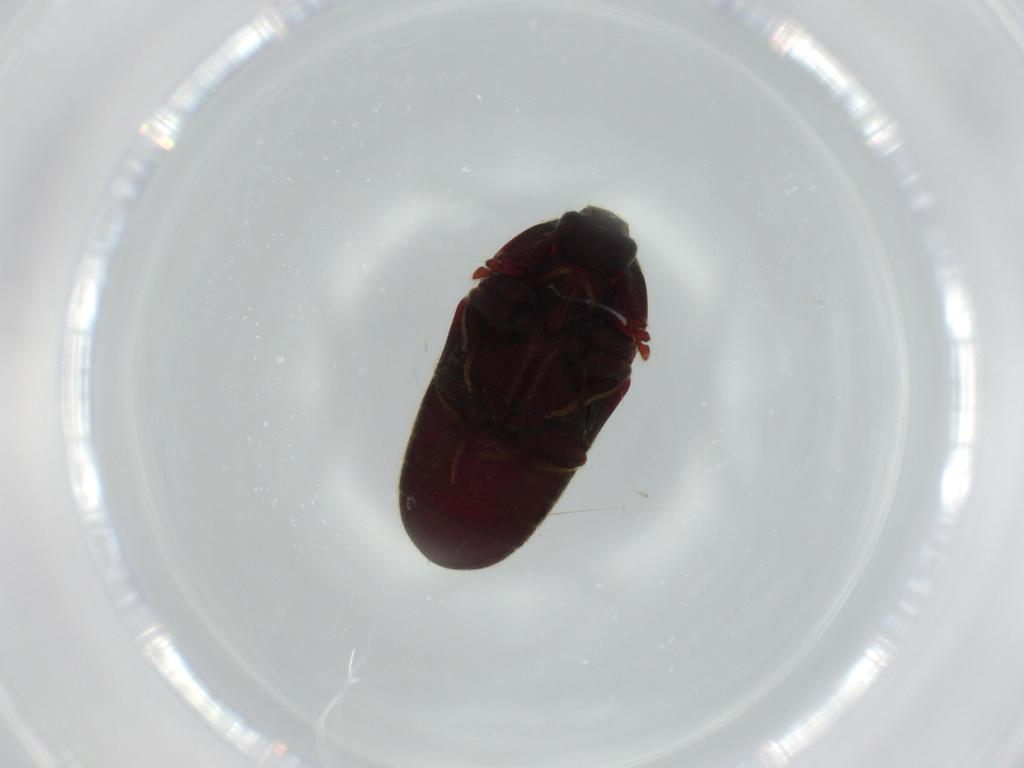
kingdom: Animalia
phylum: Arthropoda
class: Insecta
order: Coleoptera
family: Throscidae
